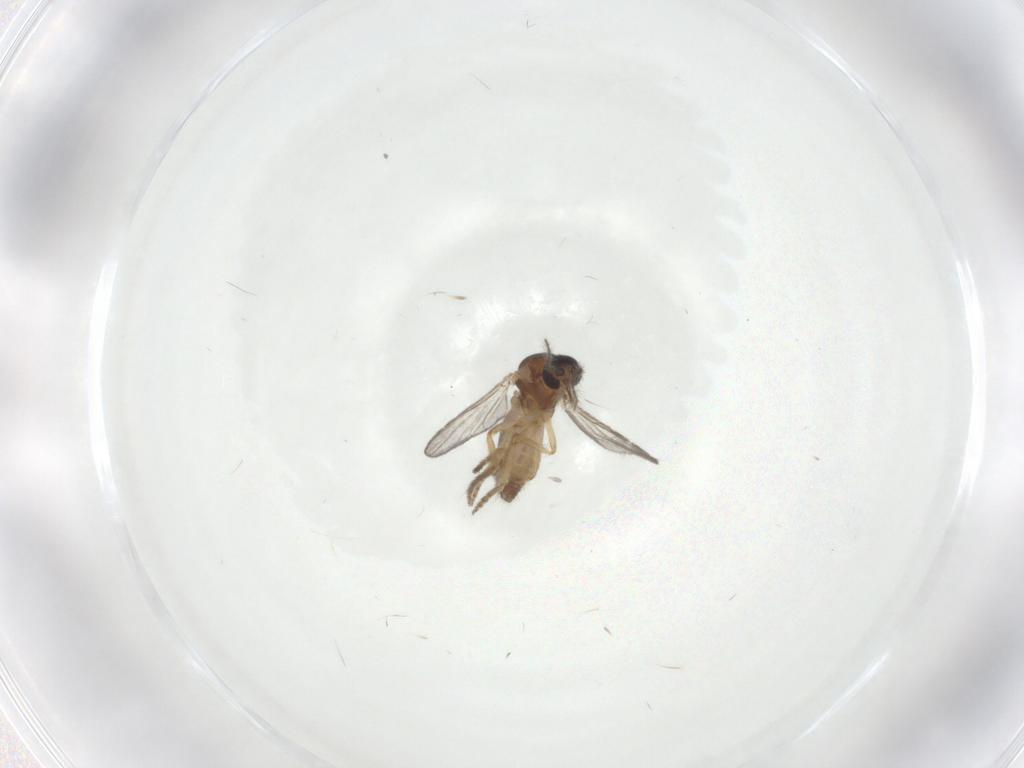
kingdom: Animalia
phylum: Arthropoda
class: Insecta
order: Diptera
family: Ceratopogonidae
